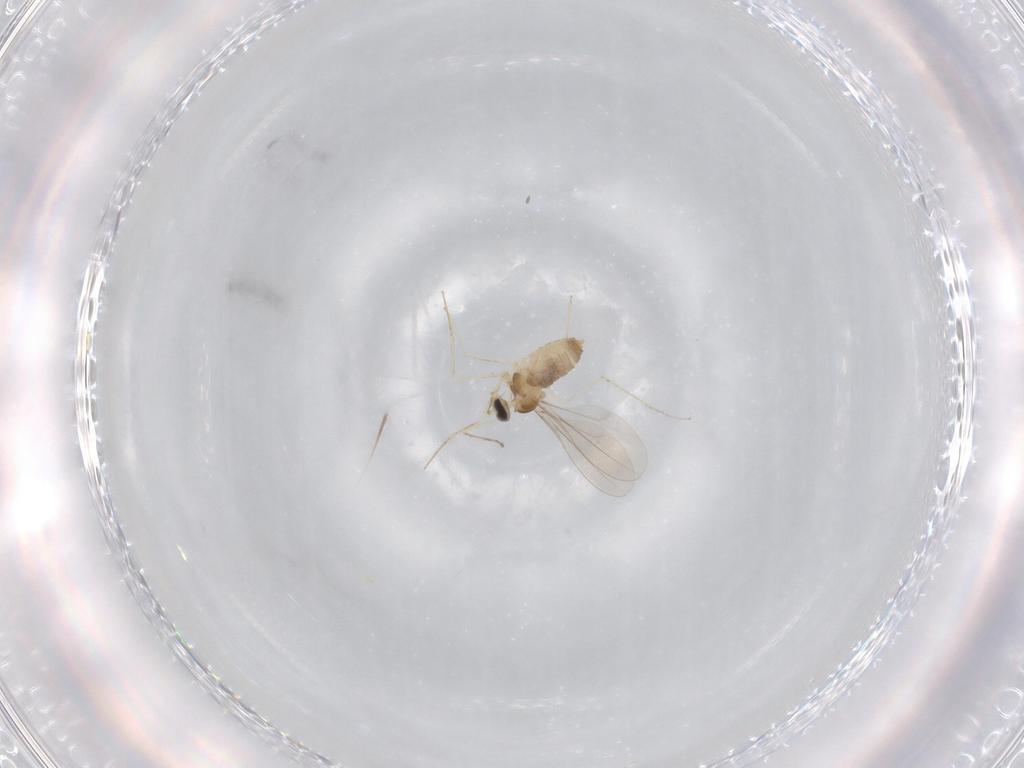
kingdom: Animalia
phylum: Arthropoda
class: Insecta
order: Diptera
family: Cecidomyiidae
